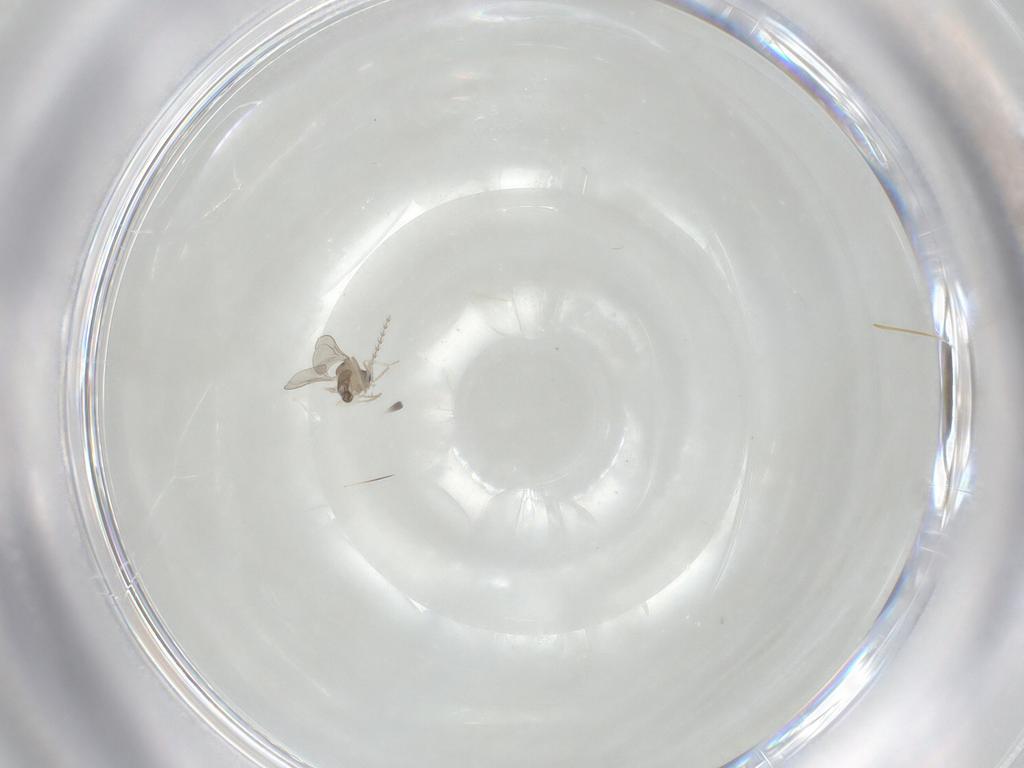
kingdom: Animalia
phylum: Arthropoda
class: Insecta
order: Diptera
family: Cecidomyiidae
